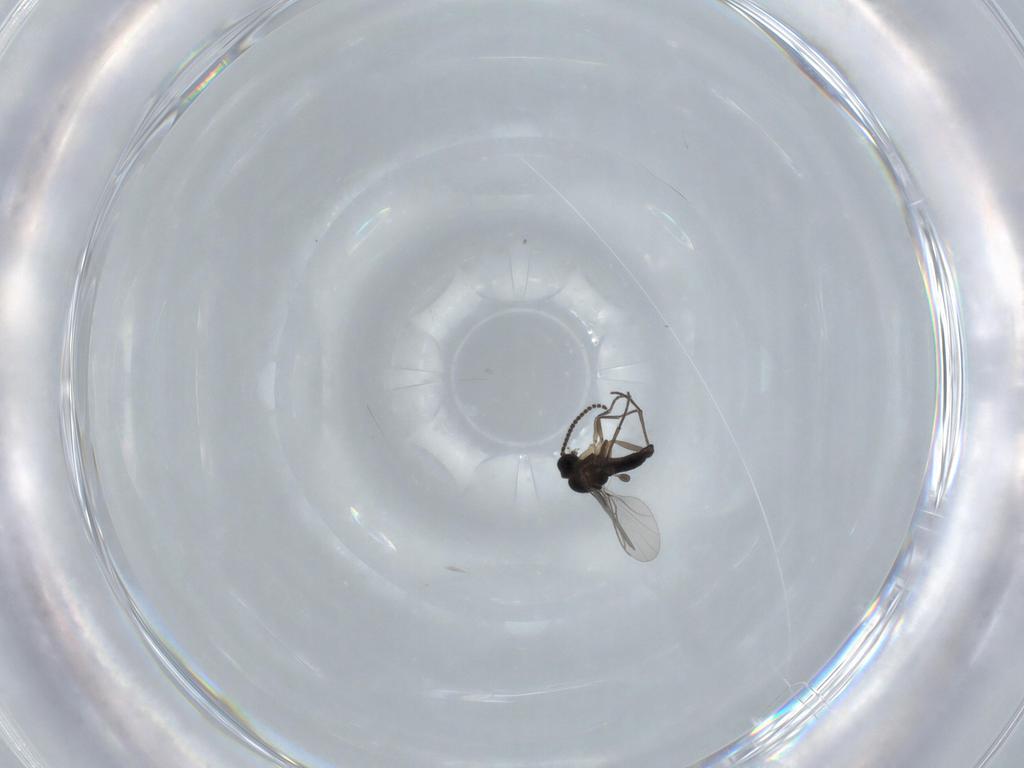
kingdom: Animalia
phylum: Arthropoda
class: Insecta
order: Diptera
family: Sciaridae
